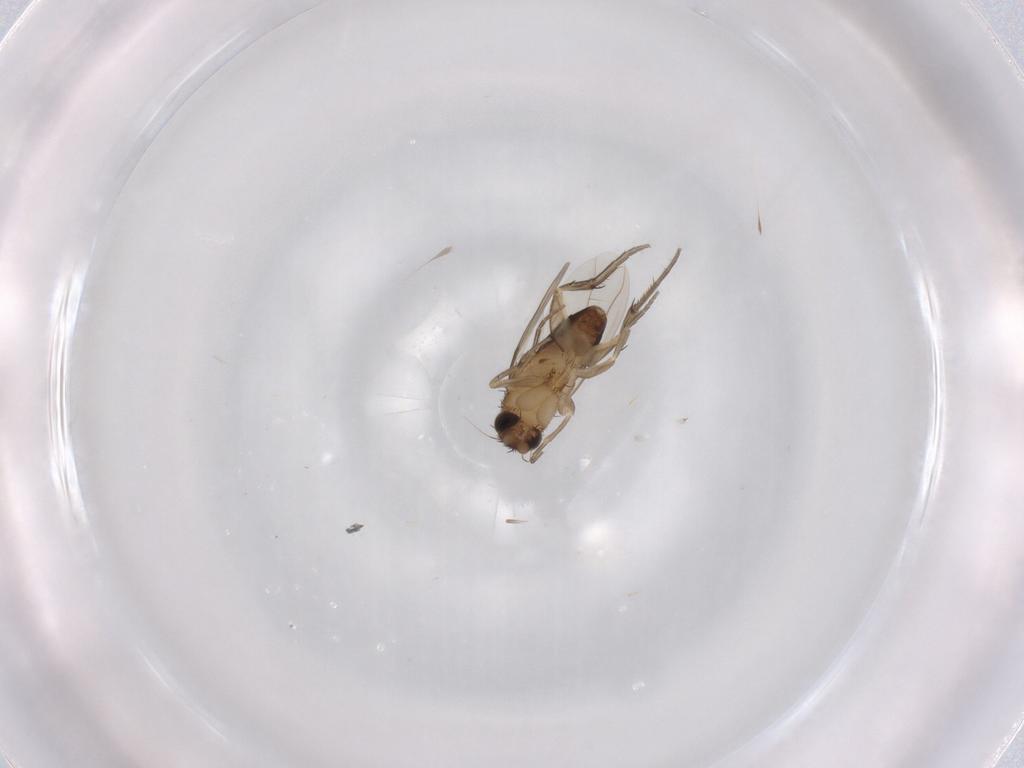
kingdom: Animalia
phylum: Arthropoda
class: Insecta
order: Diptera
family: Phoridae
